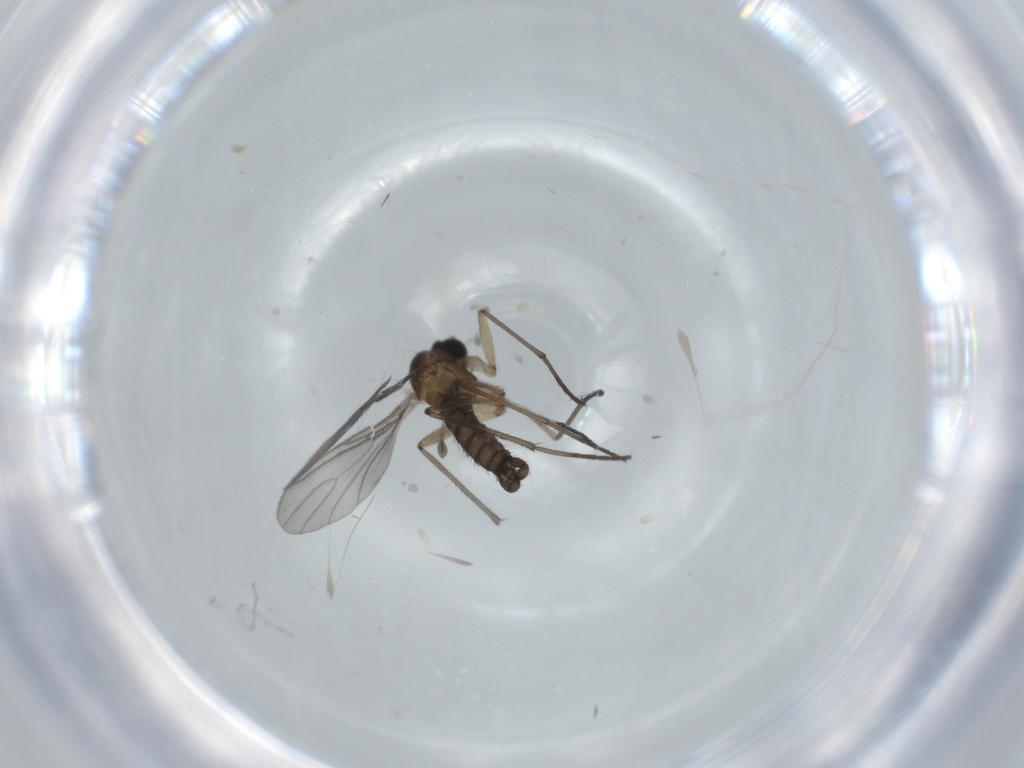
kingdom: Animalia
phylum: Arthropoda
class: Insecta
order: Diptera
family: Sciaridae
